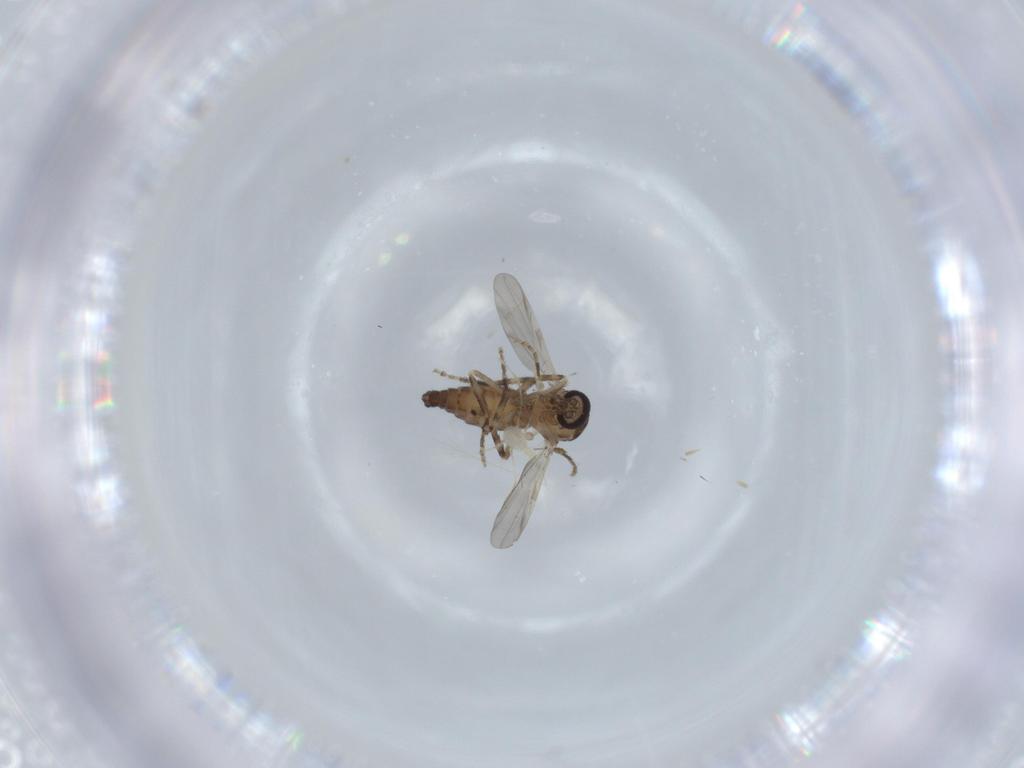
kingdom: Animalia
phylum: Arthropoda
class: Insecta
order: Diptera
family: Ceratopogonidae
